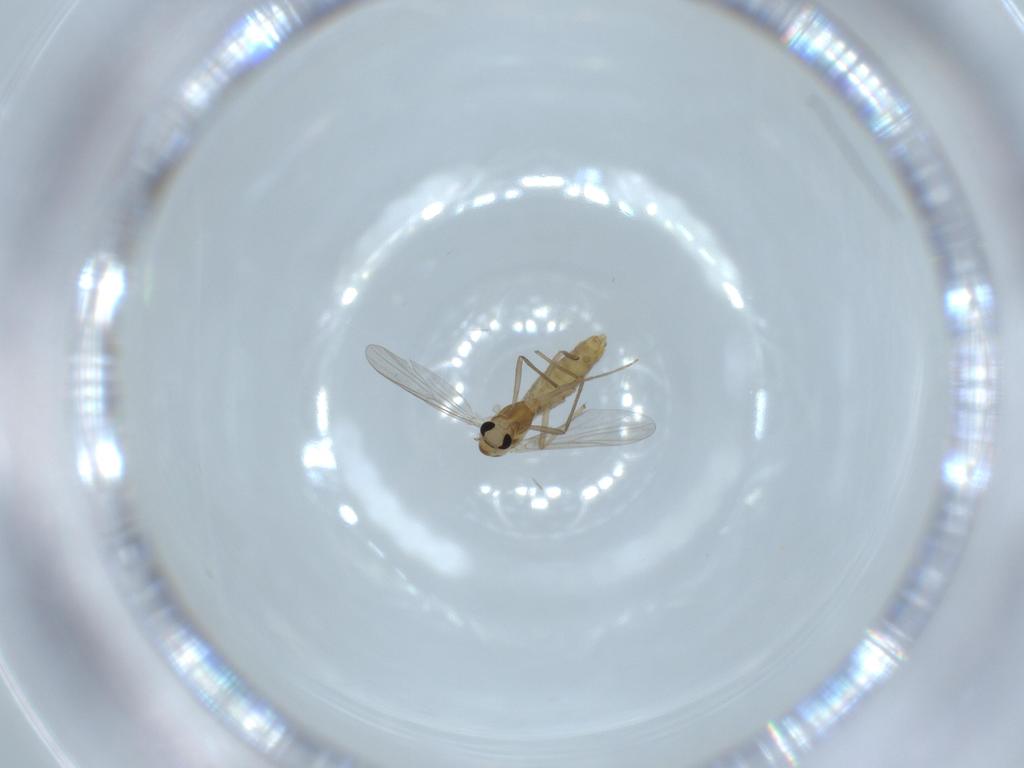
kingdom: Animalia
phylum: Arthropoda
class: Insecta
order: Diptera
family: Chironomidae
